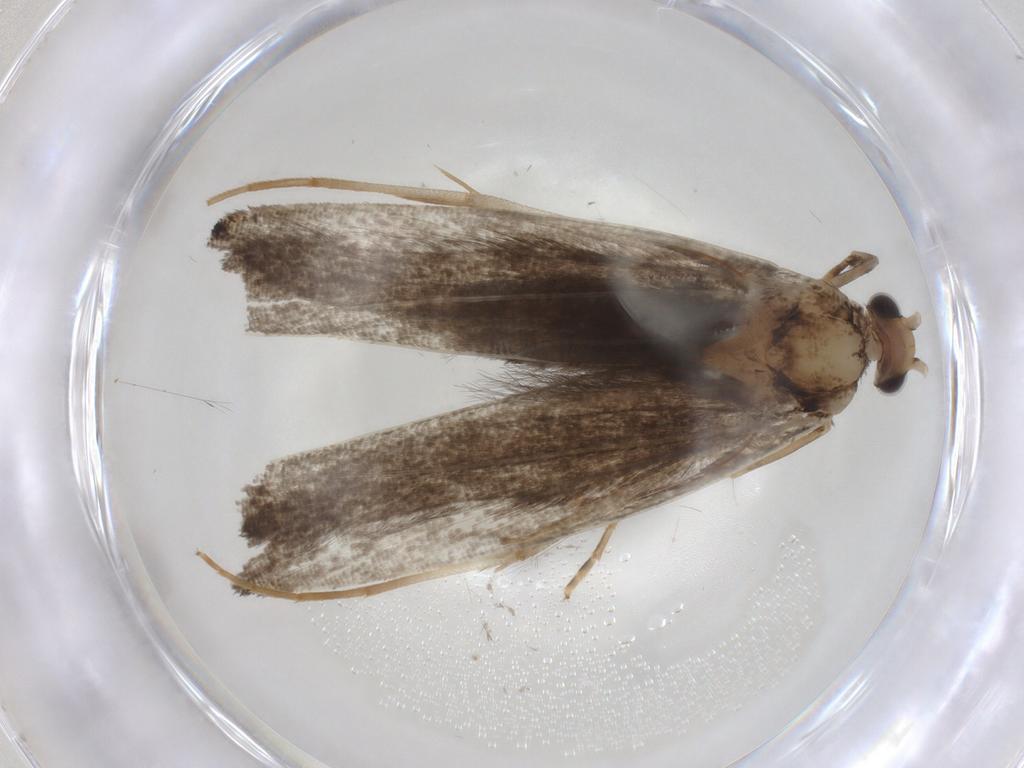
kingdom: Animalia
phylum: Arthropoda
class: Insecta
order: Lepidoptera
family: Tineidae
